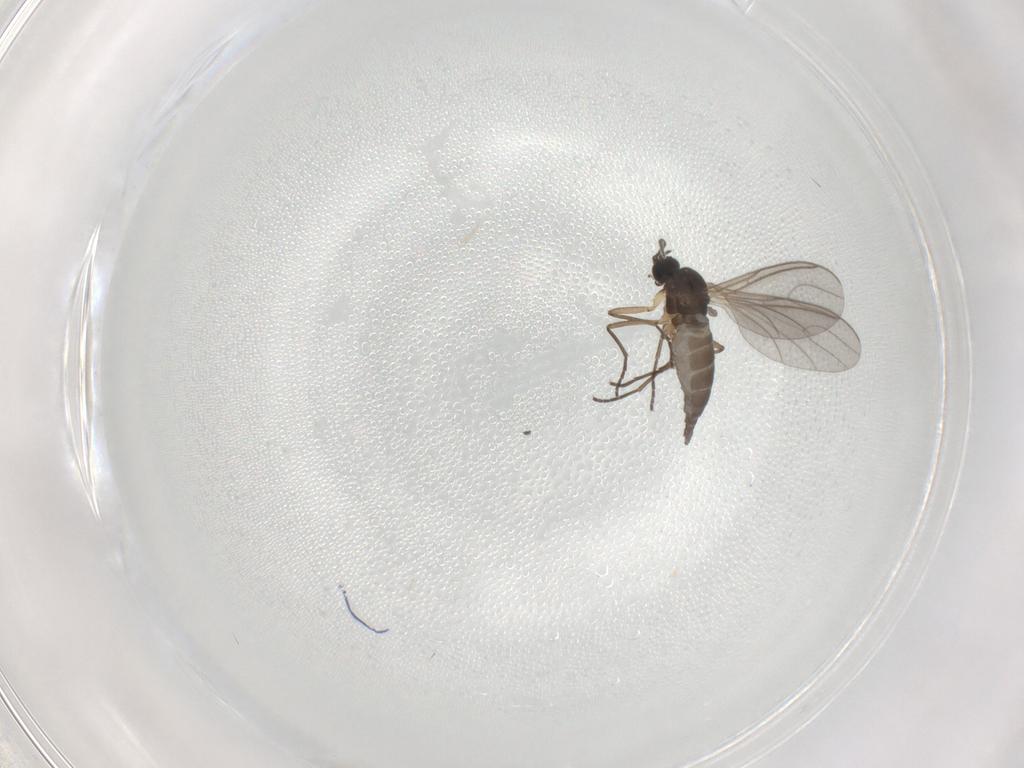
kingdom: Animalia
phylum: Arthropoda
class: Insecta
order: Diptera
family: Sciaridae
